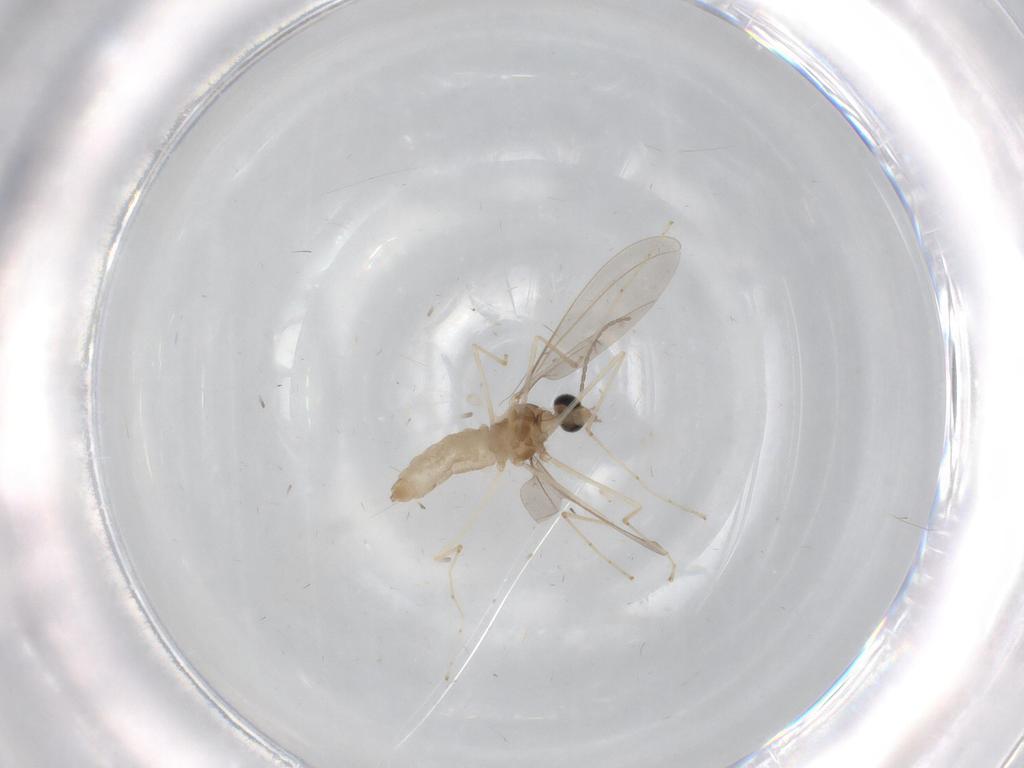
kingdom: Animalia
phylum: Arthropoda
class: Insecta
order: Diptera
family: Cecidomyiidae
